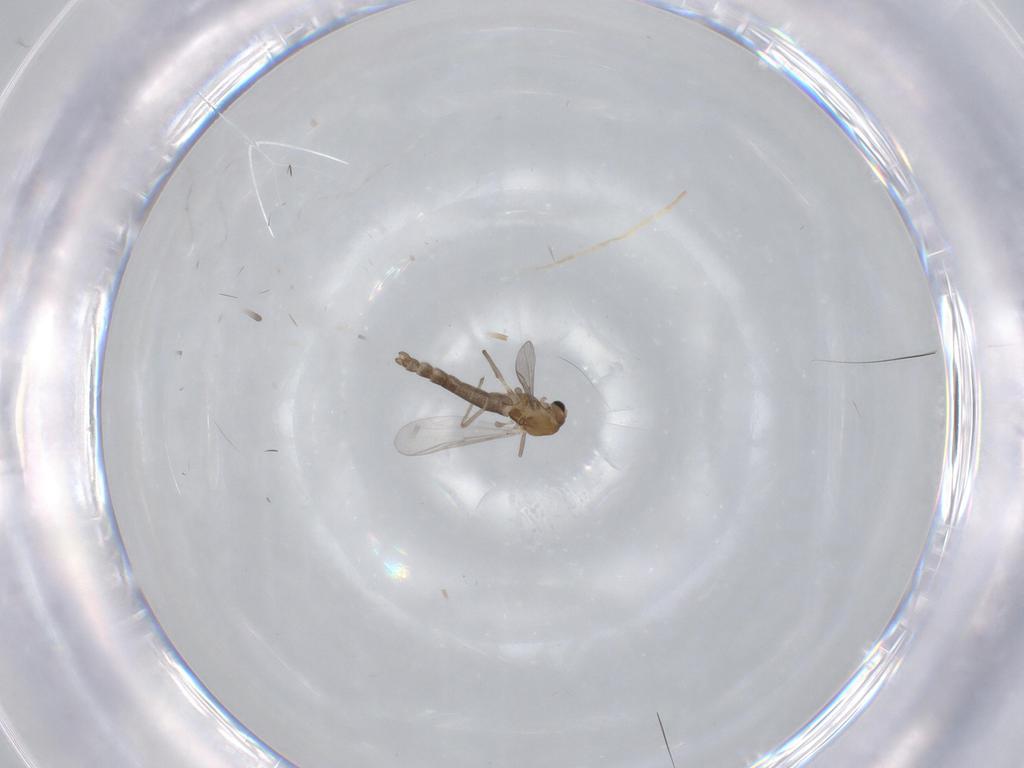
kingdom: Animalia
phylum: Arthropoda
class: Insecta
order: Diptera
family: Chironomidae
